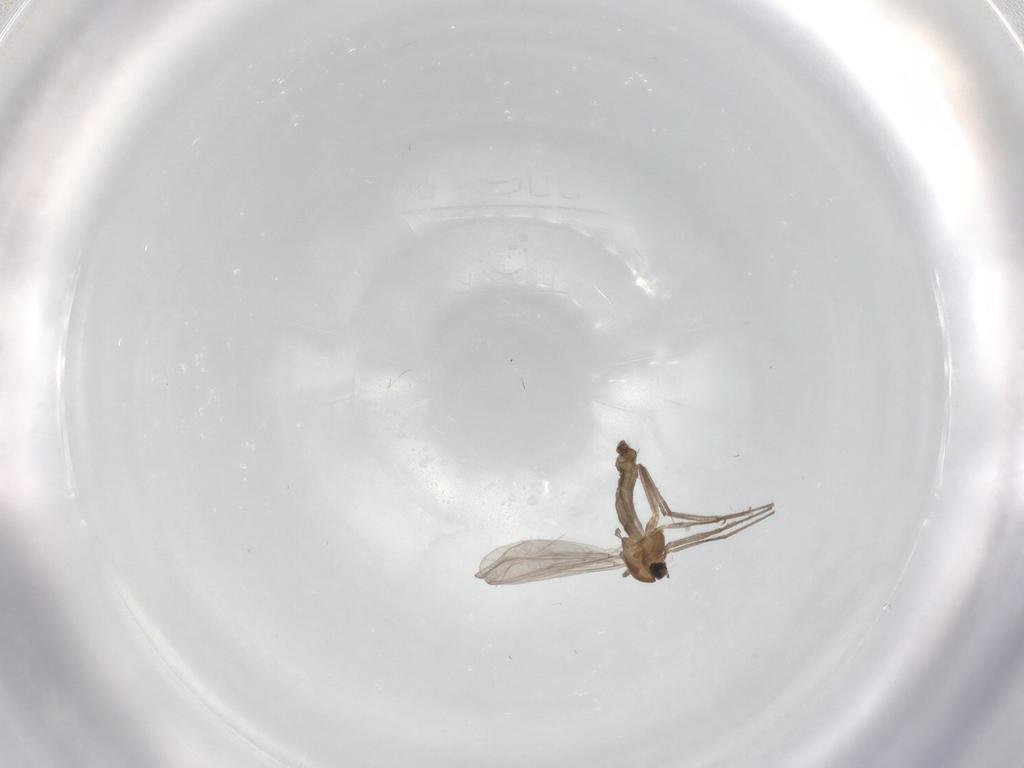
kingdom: Animalia
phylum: Arthropoda
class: Insecta
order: Diptera
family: Chironomidae
